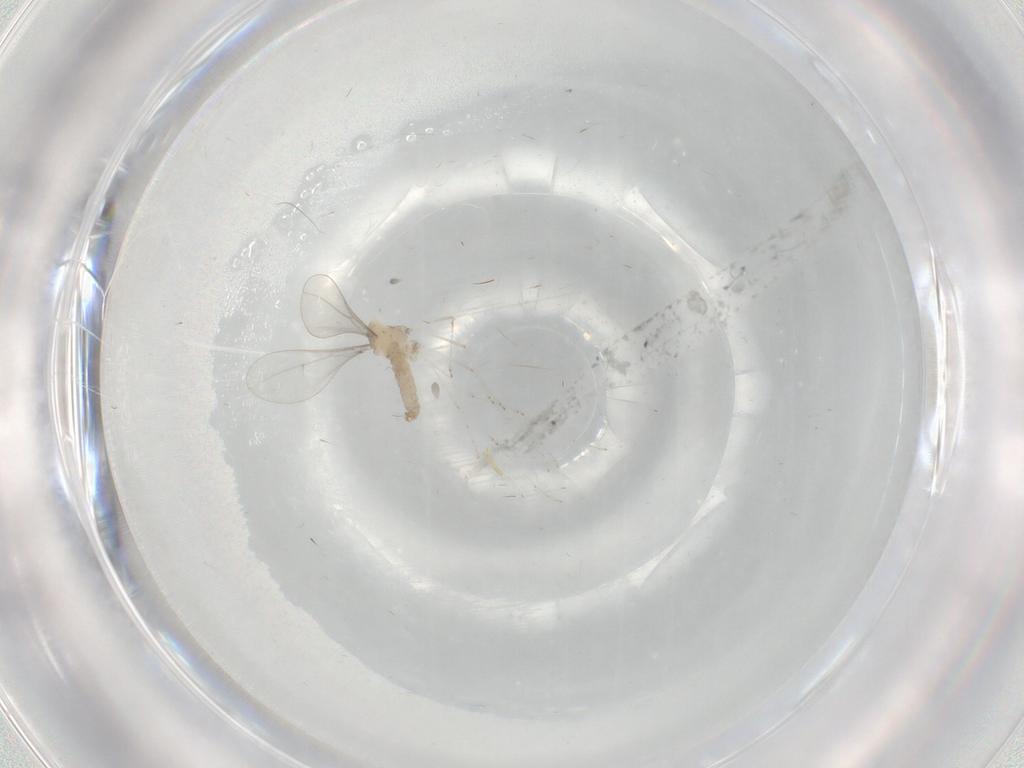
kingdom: Animalia
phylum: Arthropoda
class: Insecta
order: Diptera
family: Cecidomyiidae
